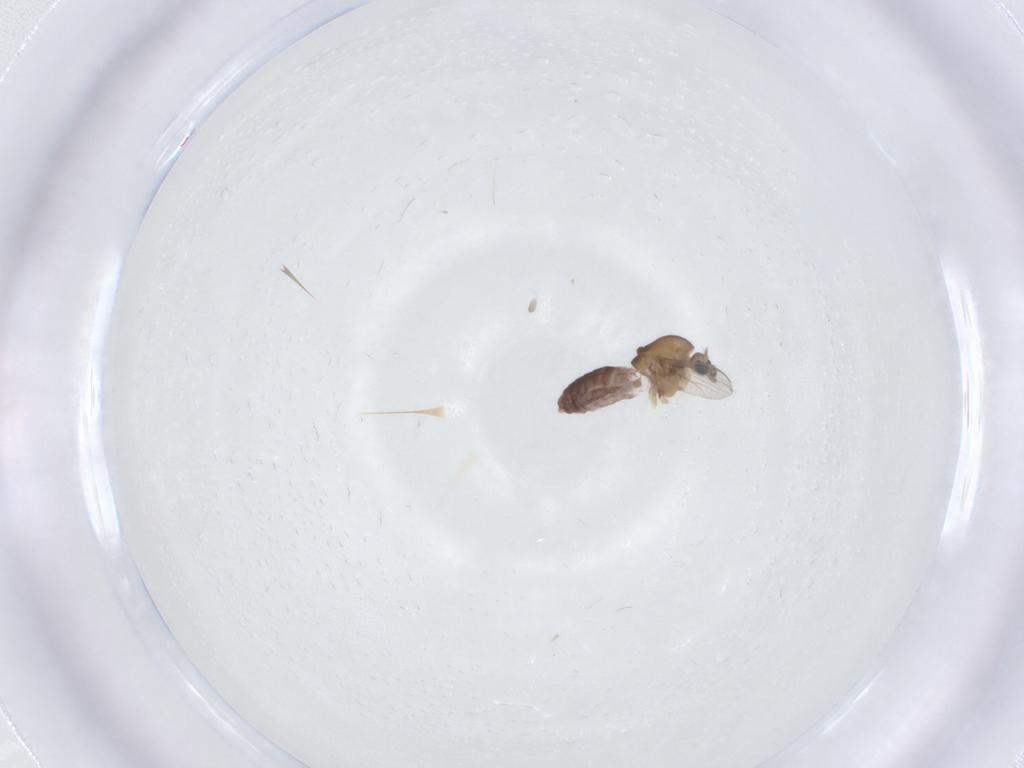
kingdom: Animalia
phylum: Arthropoda
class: Insecta
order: Diptera
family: Chironomidae
